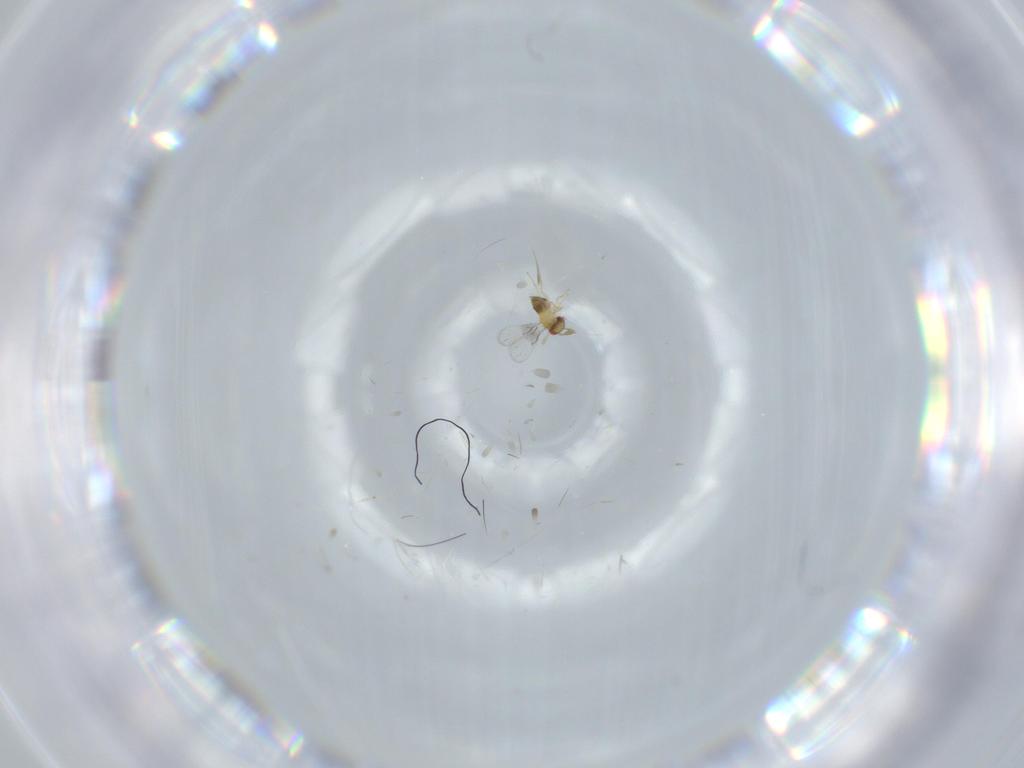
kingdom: Animalia
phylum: Arthropoda
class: Insecta
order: Hymenoptera
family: Trichogrammatidae
